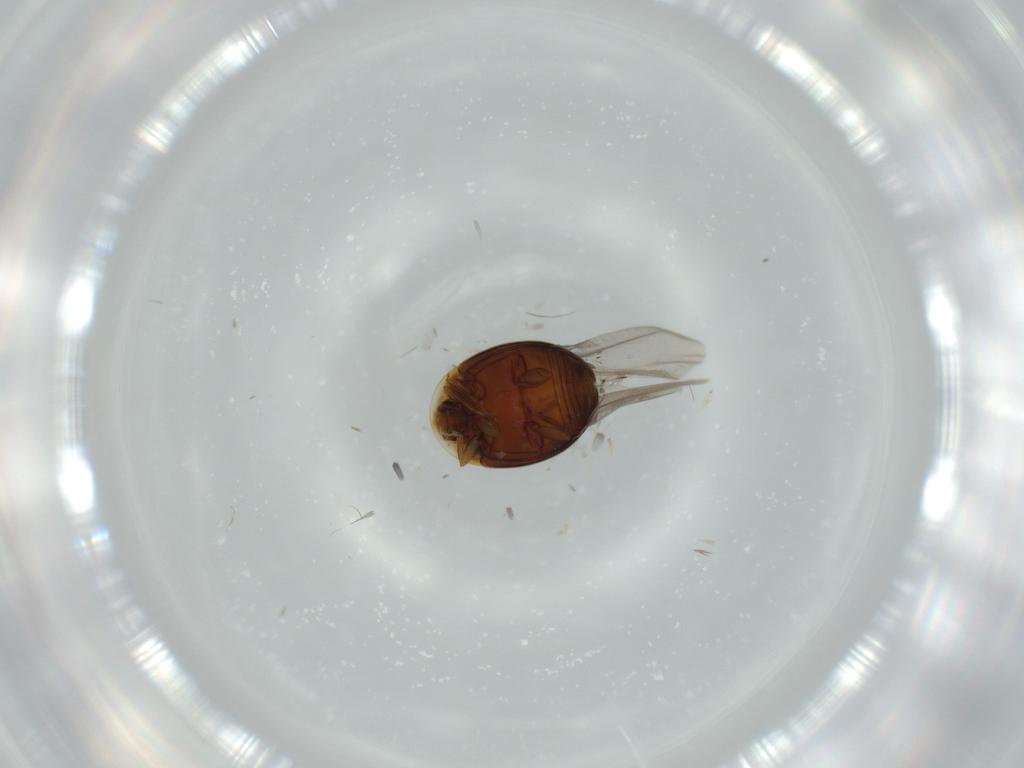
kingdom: Animalia
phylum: Arthropoda
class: Insecta
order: Coleoptera
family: Corylophidae
